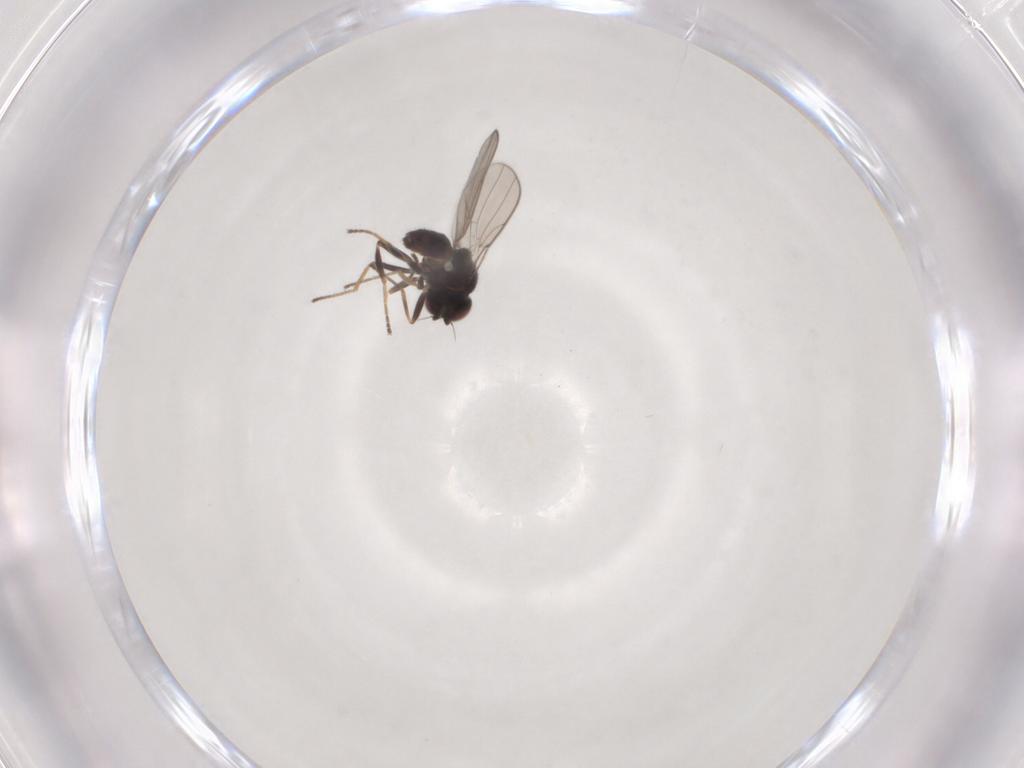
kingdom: Animalia
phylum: Arthropoda
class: Insecta
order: Diptera
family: Chloropidae
